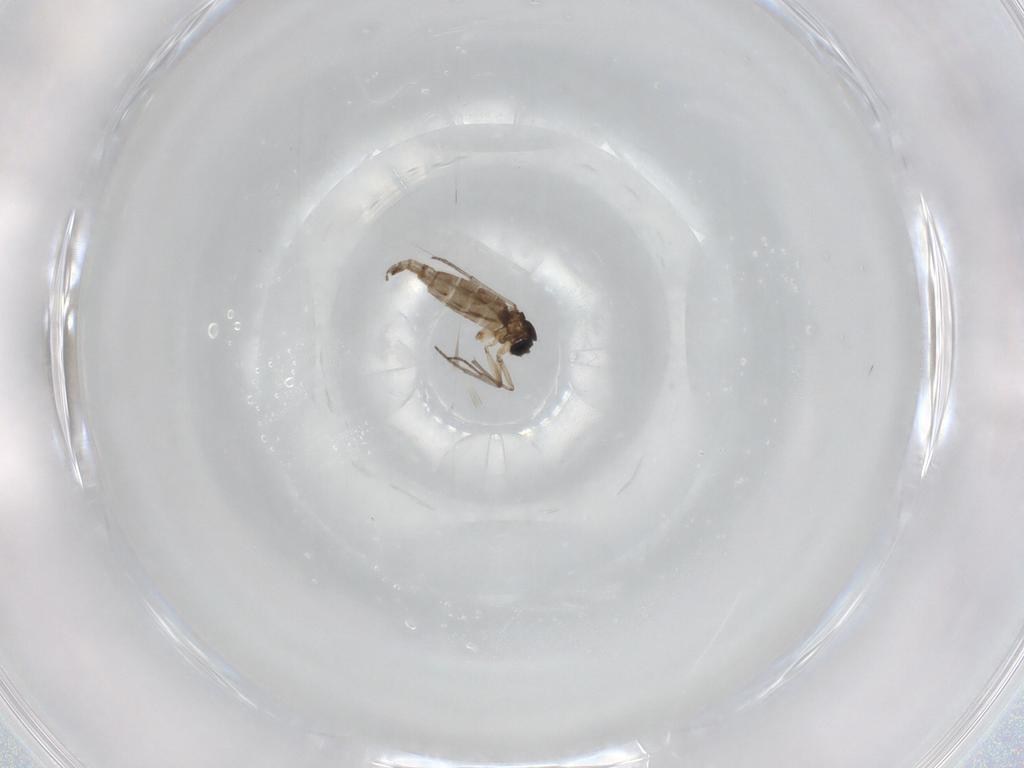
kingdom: Animalia
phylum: Arthropoda
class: Insecta
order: Diptera
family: Sciaridae
